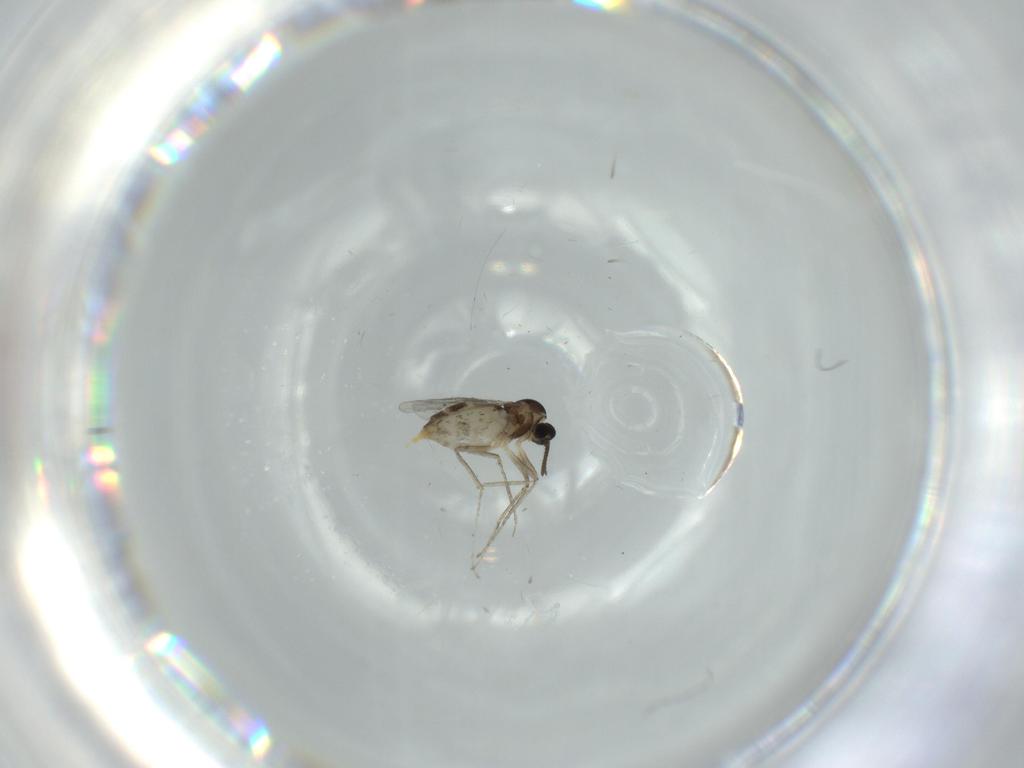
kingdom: Animalia
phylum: Arthropoda
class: Insecta
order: Diptera
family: Cecidomyiidae
